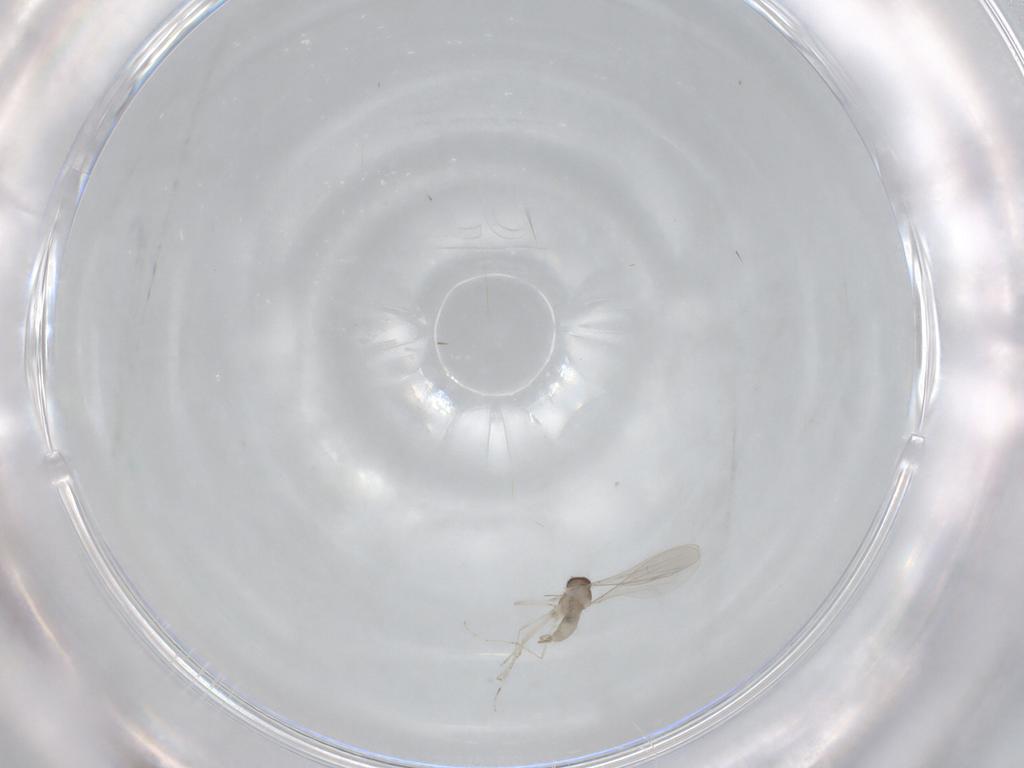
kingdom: Animalia
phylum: Arthropoda
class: Insecta
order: Diptera
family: Cecidomyiidae
